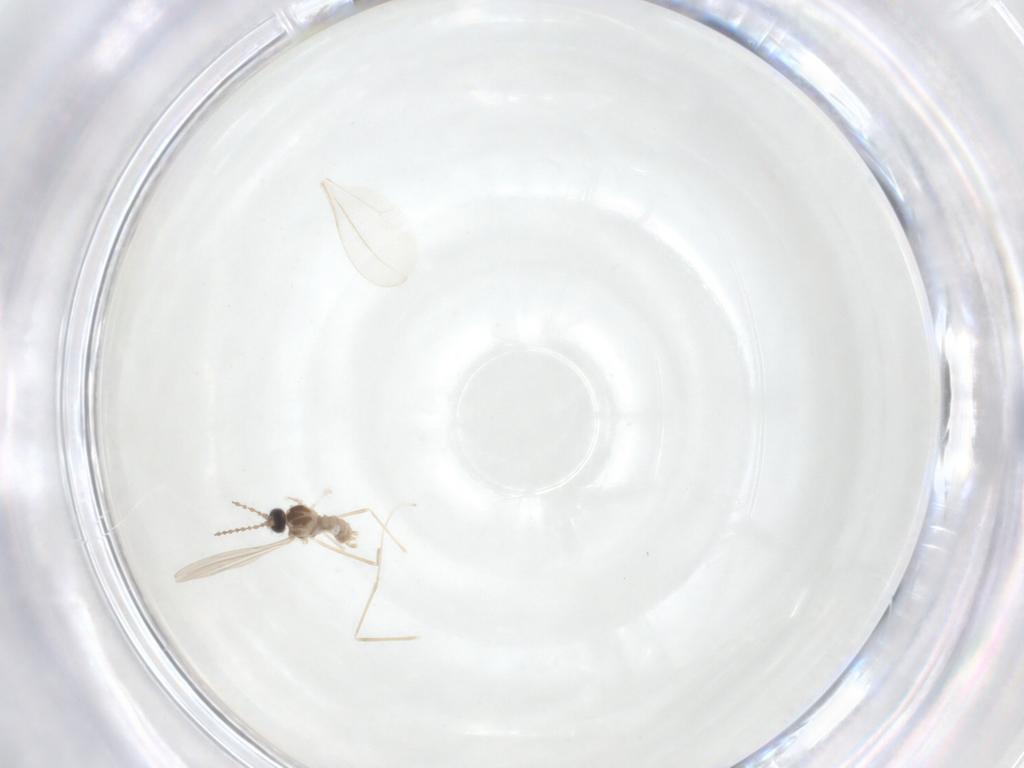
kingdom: Animalia
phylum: Arthropoda
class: Insecta
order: Diptera
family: Cecidomyiidae
